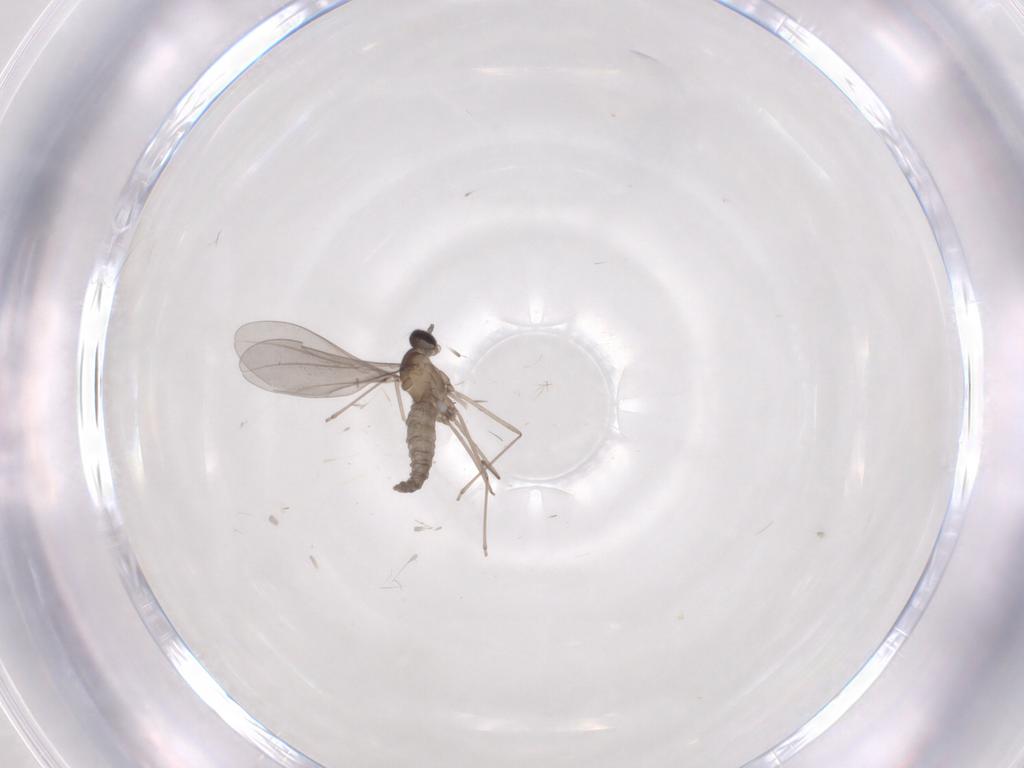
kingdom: Animalia
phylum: Arthropoda
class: Insecta
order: Diptera
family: Cecidomyiidae
